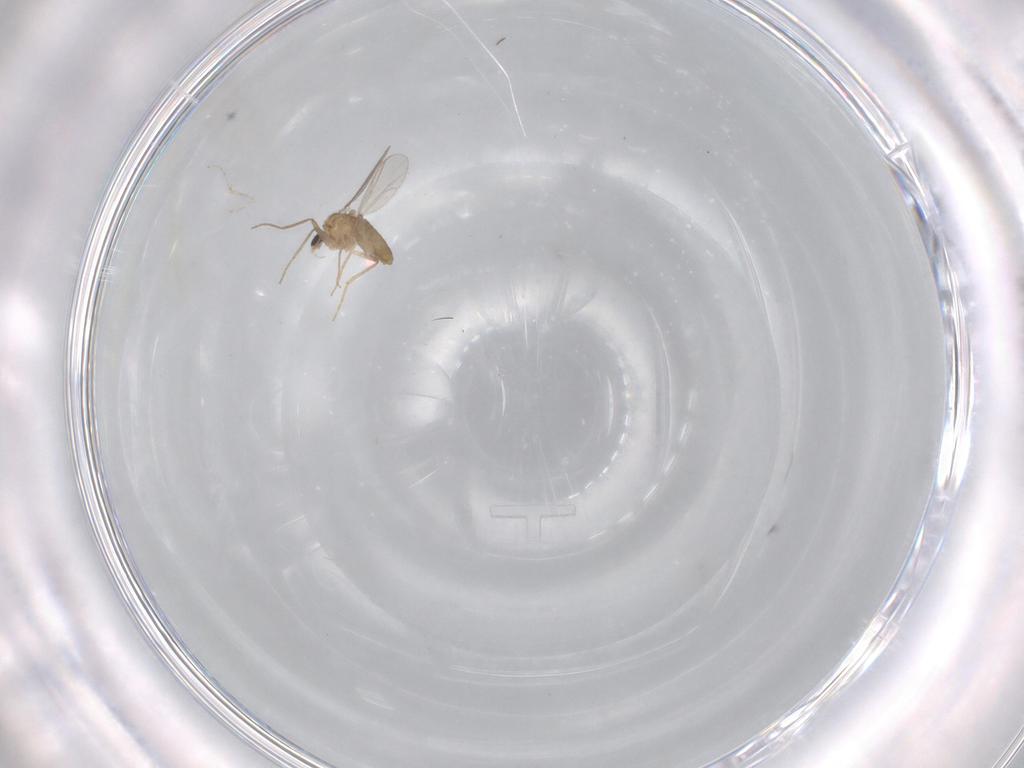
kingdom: Animalia
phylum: Arthropoda
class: Insecta
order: Diptera
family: Chironomidae
